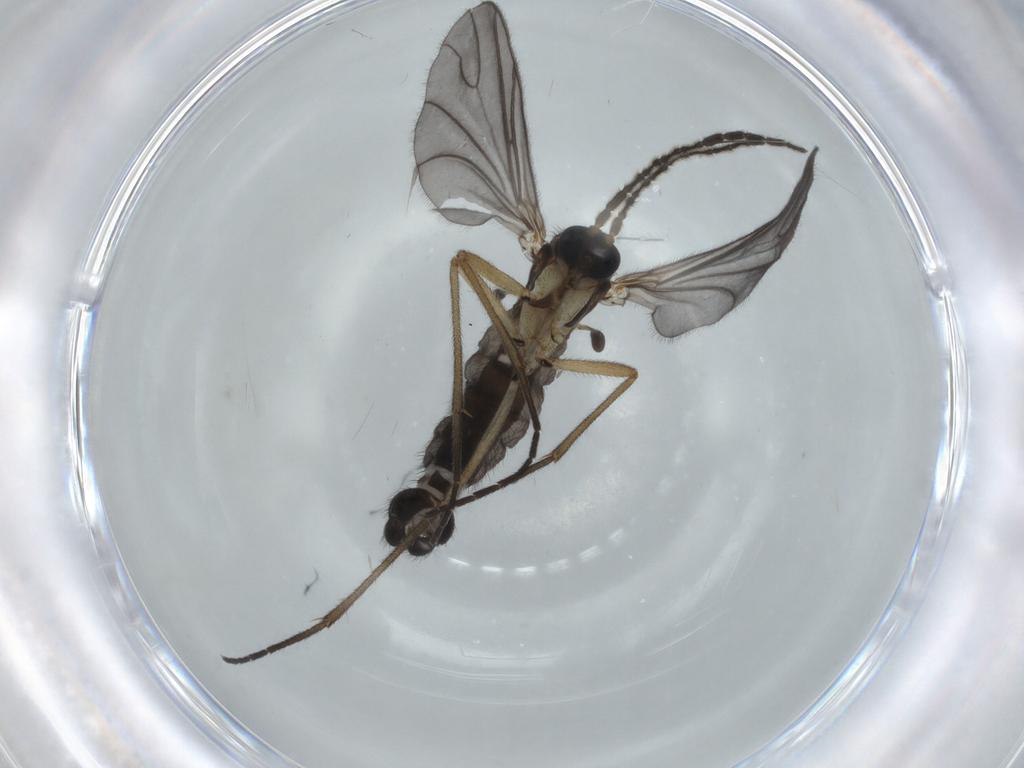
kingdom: Animalia
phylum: Arthropoda
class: Insecta
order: Diptera
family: Sciaridae
